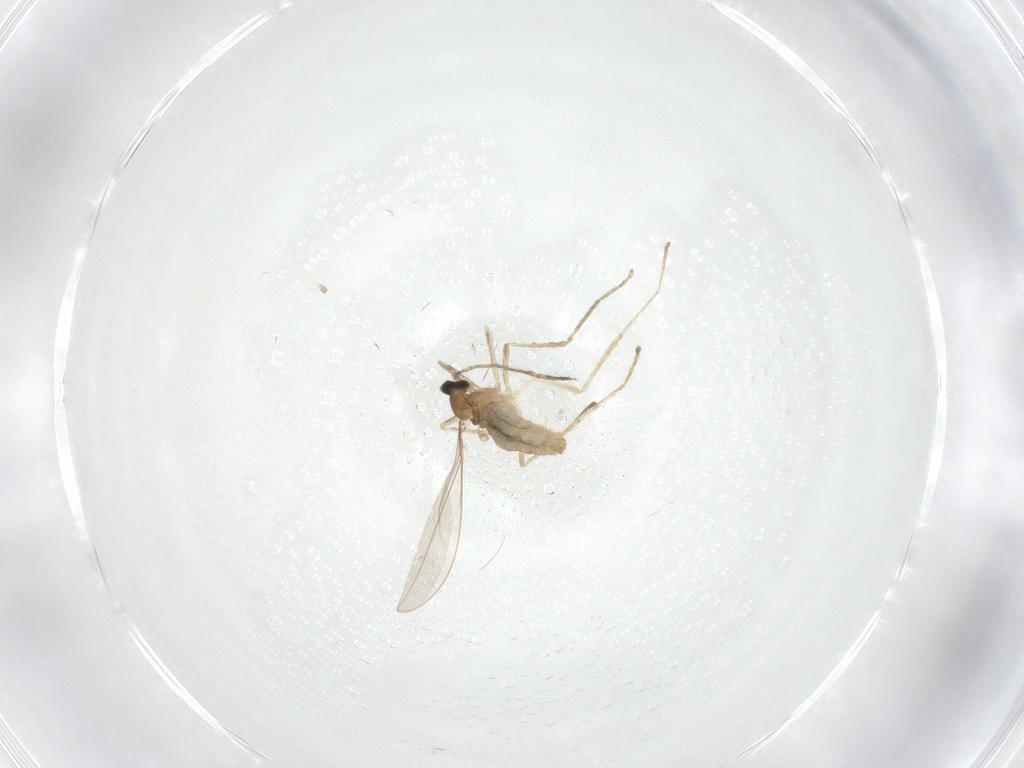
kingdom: Animalia
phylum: Arthropoda
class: Insecta
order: Diptera
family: Cecidomyiidae
